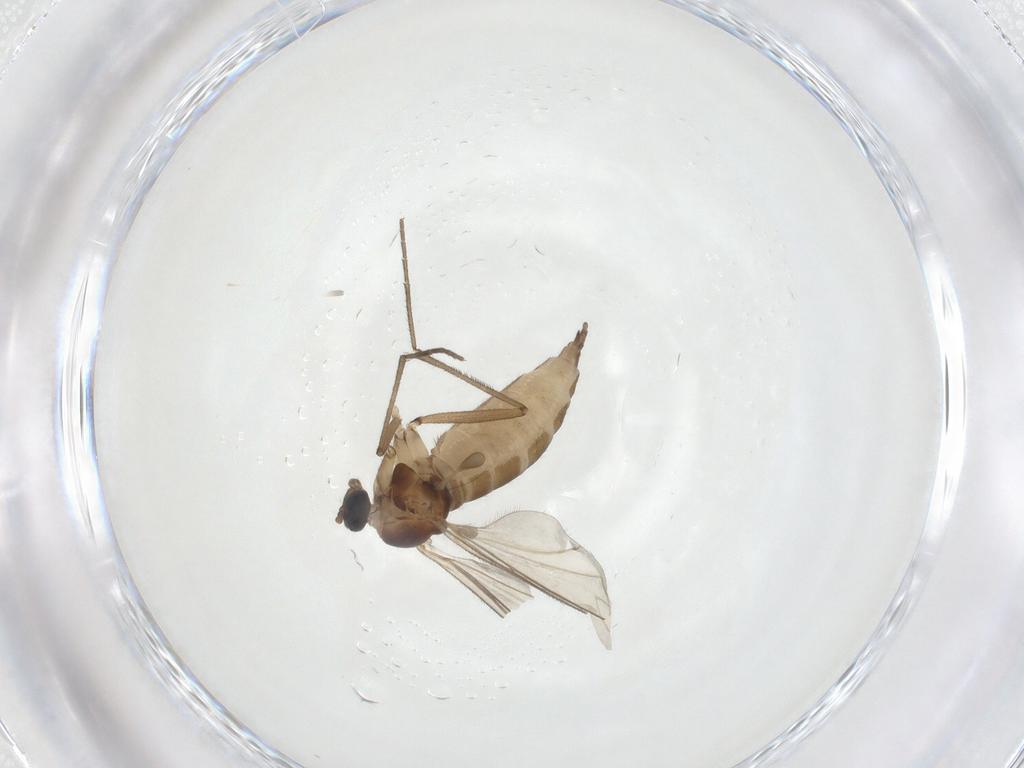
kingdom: Animalia
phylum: Arthropoda
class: Insecta
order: Diptera
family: Sciaridae
